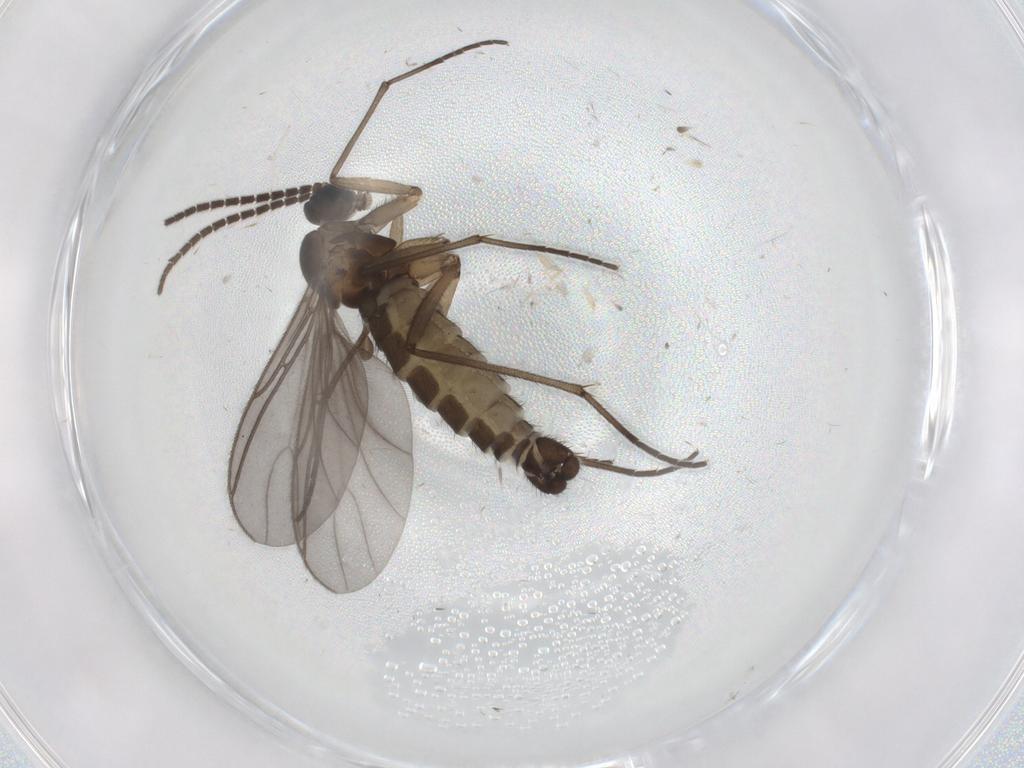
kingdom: Animalia
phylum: Arthropoda
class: Insecta
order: Diptera
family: Sciaridae
